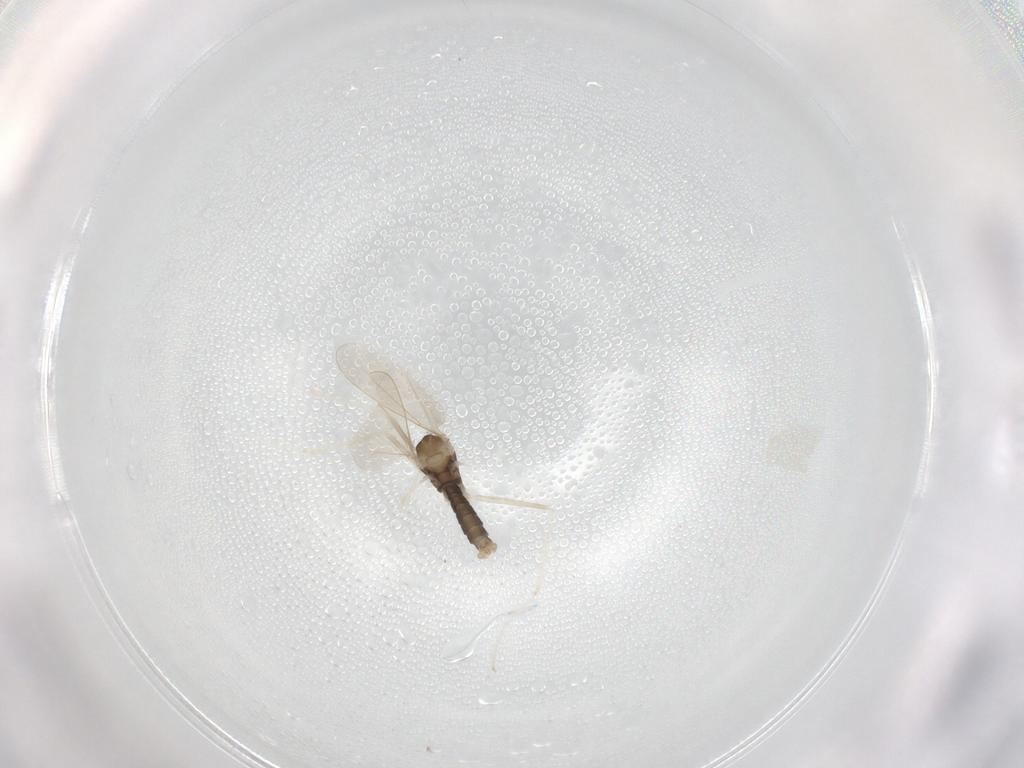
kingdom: Animalia
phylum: Arthropoda
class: Insecta
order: Diptera
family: Cecidomyiidae
